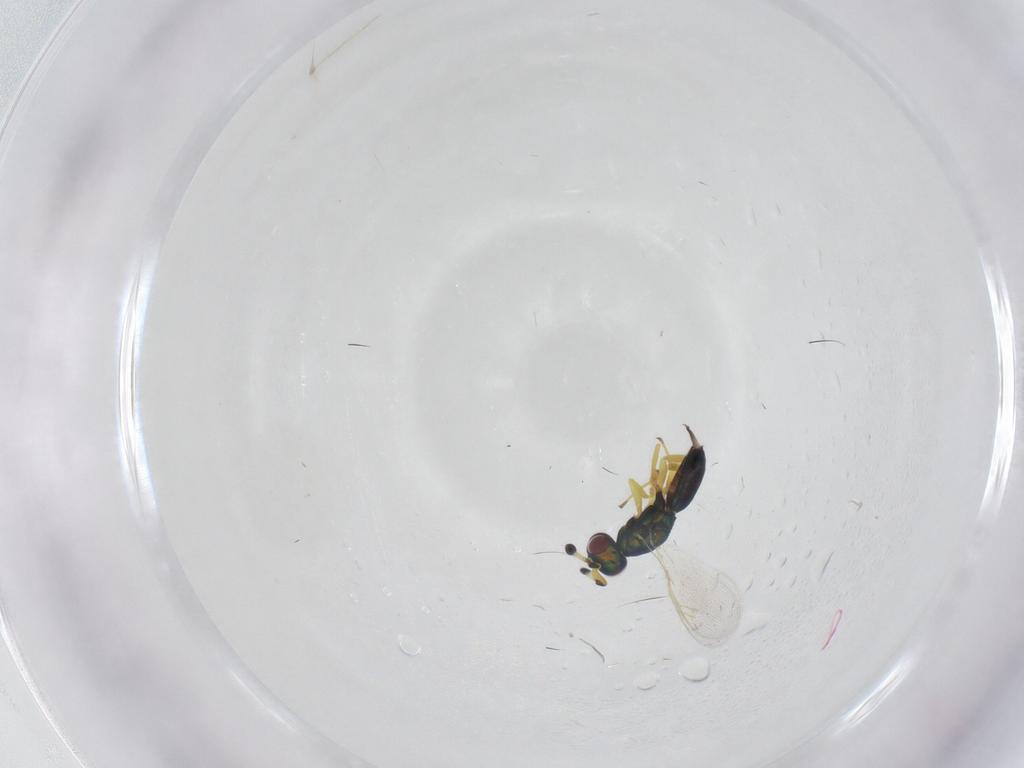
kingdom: Animalia
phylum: Arthropoda
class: Insecta
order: Hymenoptera
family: Pteromalidae
